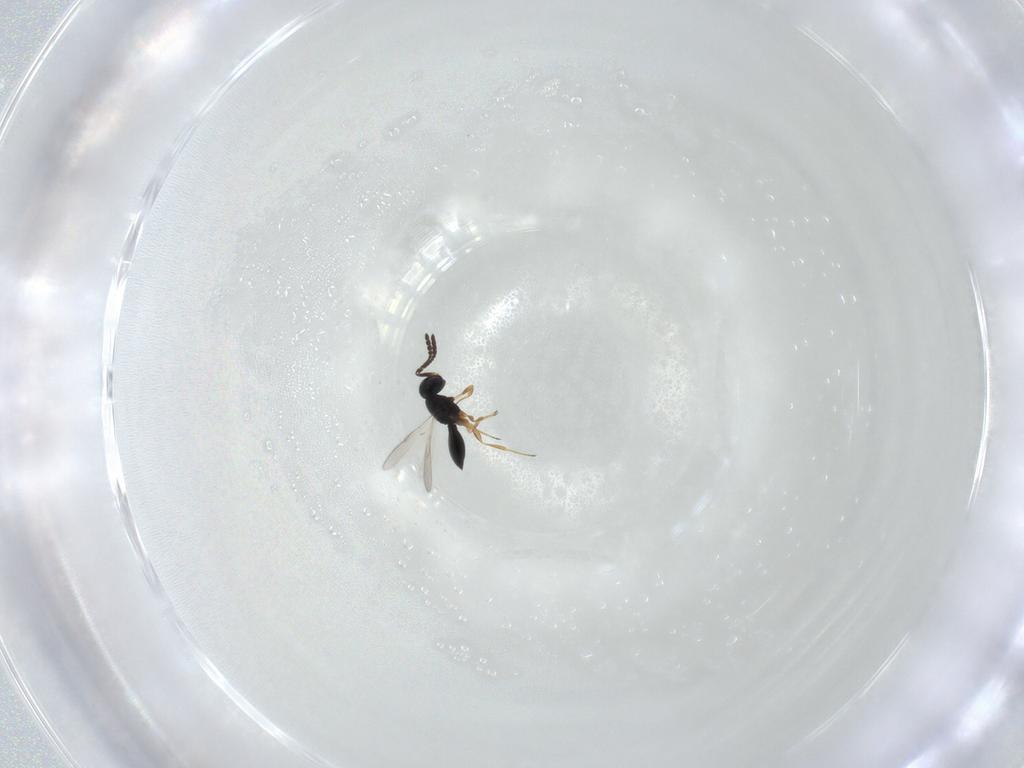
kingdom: Animalia
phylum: Arthropoda
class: Insecta
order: Hymenoptera
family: Scelionidae
